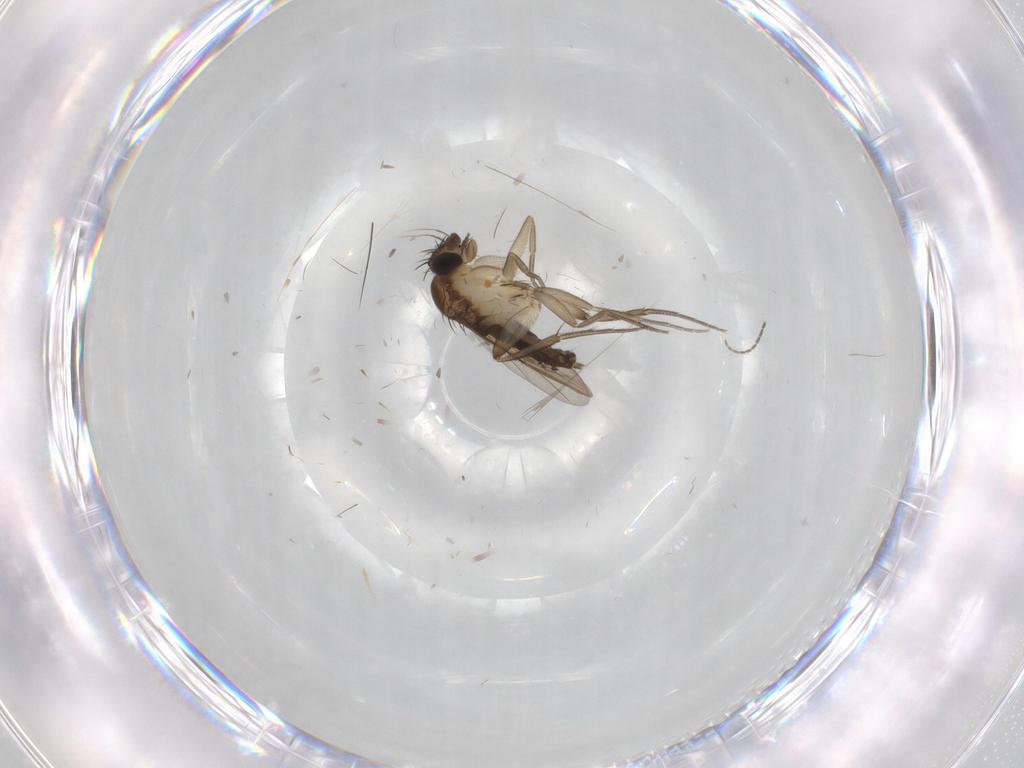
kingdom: Animalia
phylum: Arthropoda
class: Insecta
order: Diptera
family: Phoridae
